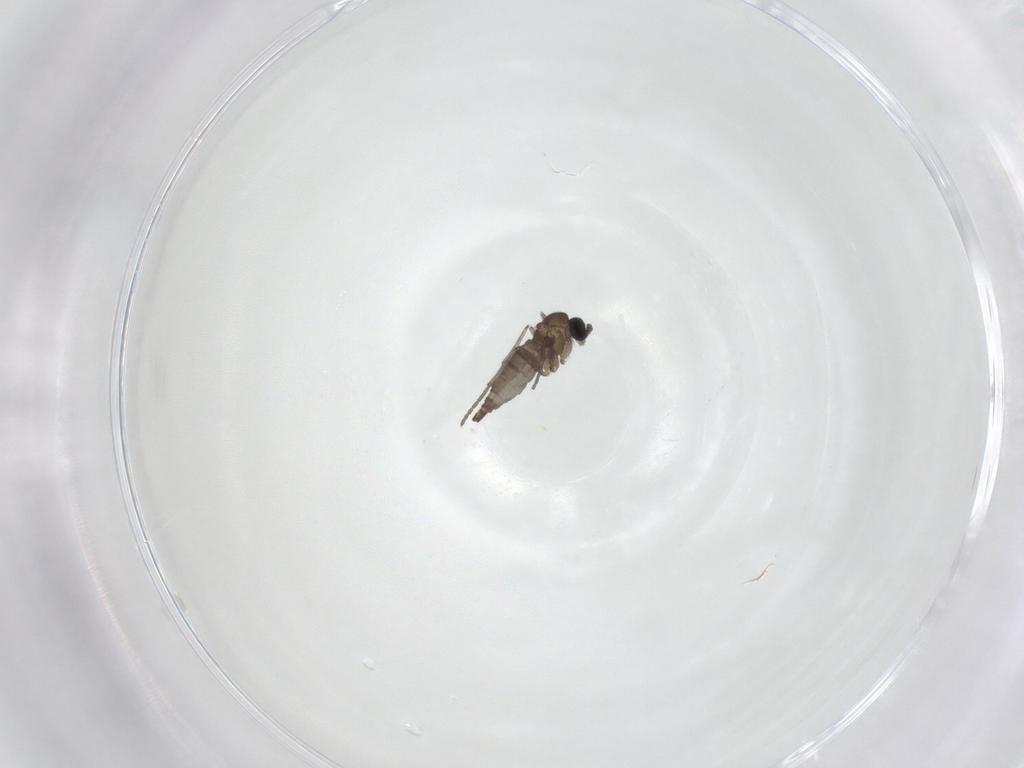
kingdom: Animalia
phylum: Arthropoda
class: Insecta
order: Diptera
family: Sciaridae
